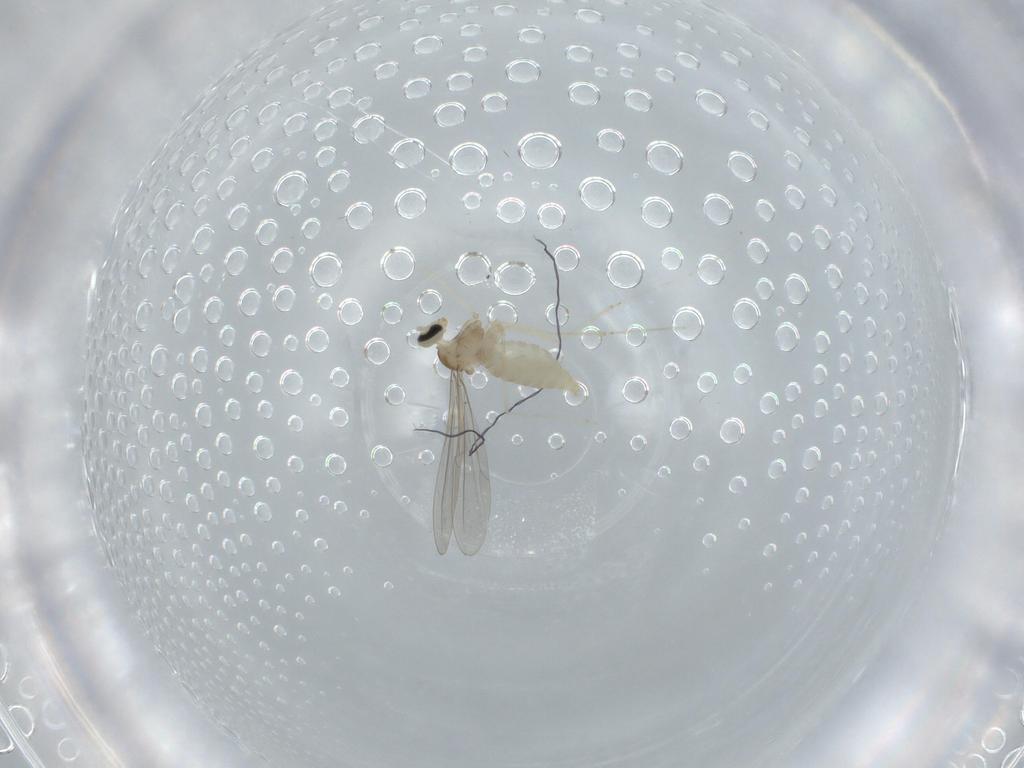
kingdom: Animalia
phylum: Arthropoda
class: Insecta
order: Diptera
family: Cecidomyiidae
